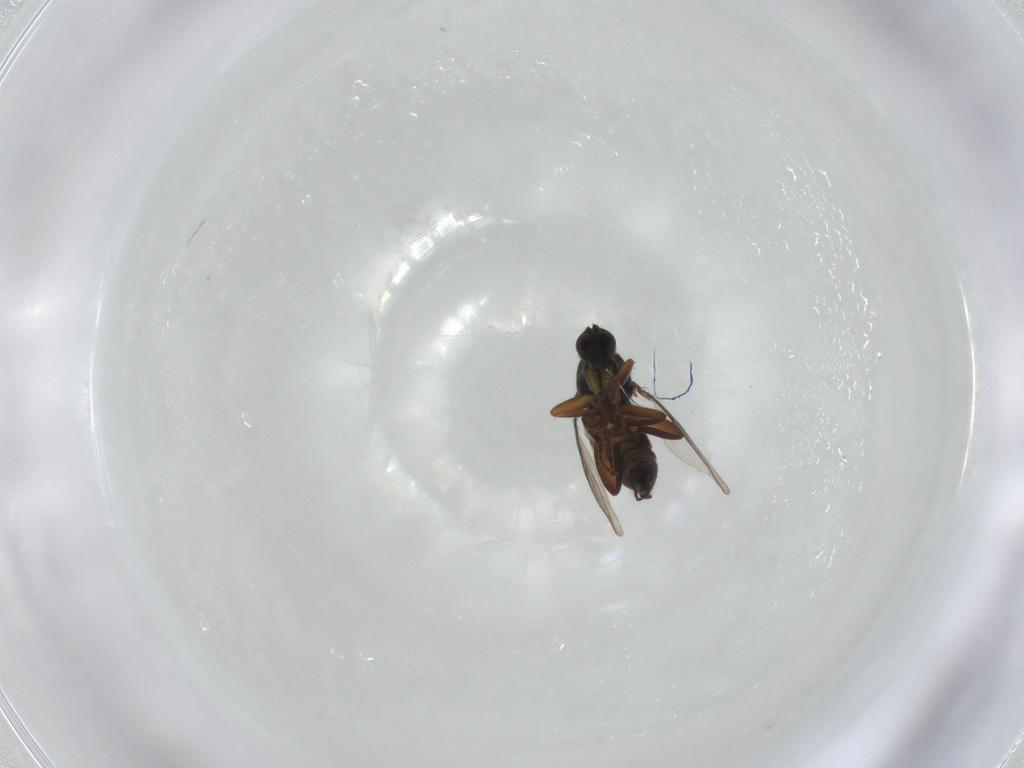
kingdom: Animalia
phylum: Arthropoda
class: Insecta
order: Diptera
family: Hybotidae
